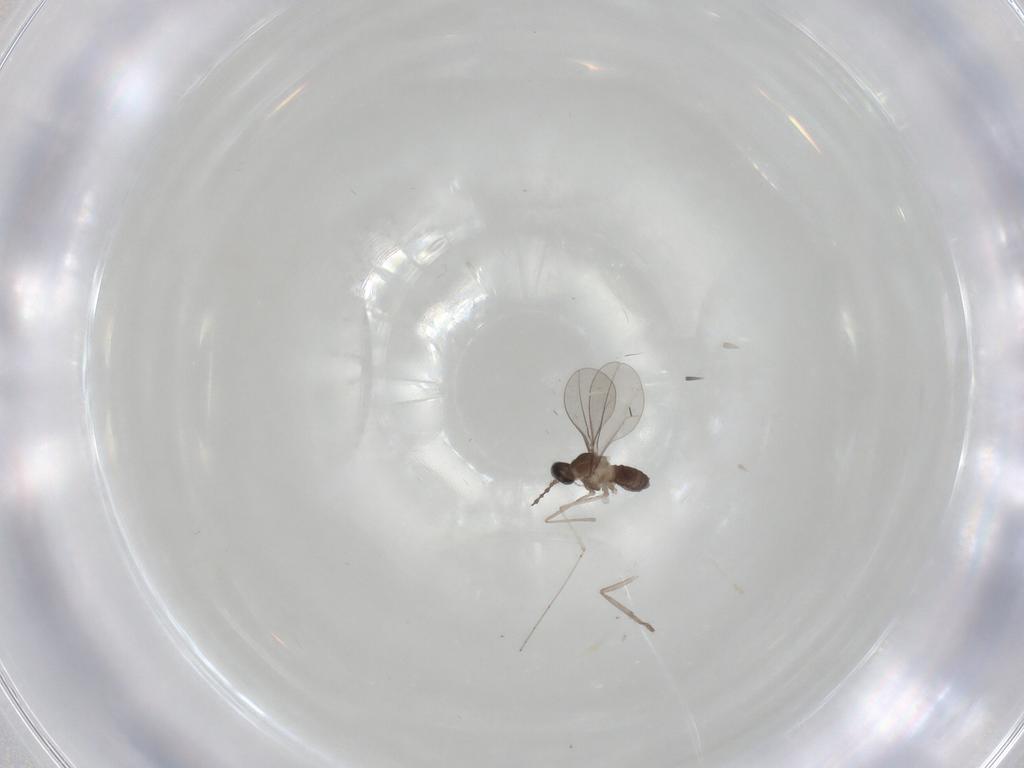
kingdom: Animalia
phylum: Arthropoda
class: Insecta
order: Diptera
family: Cecidomyiidae
